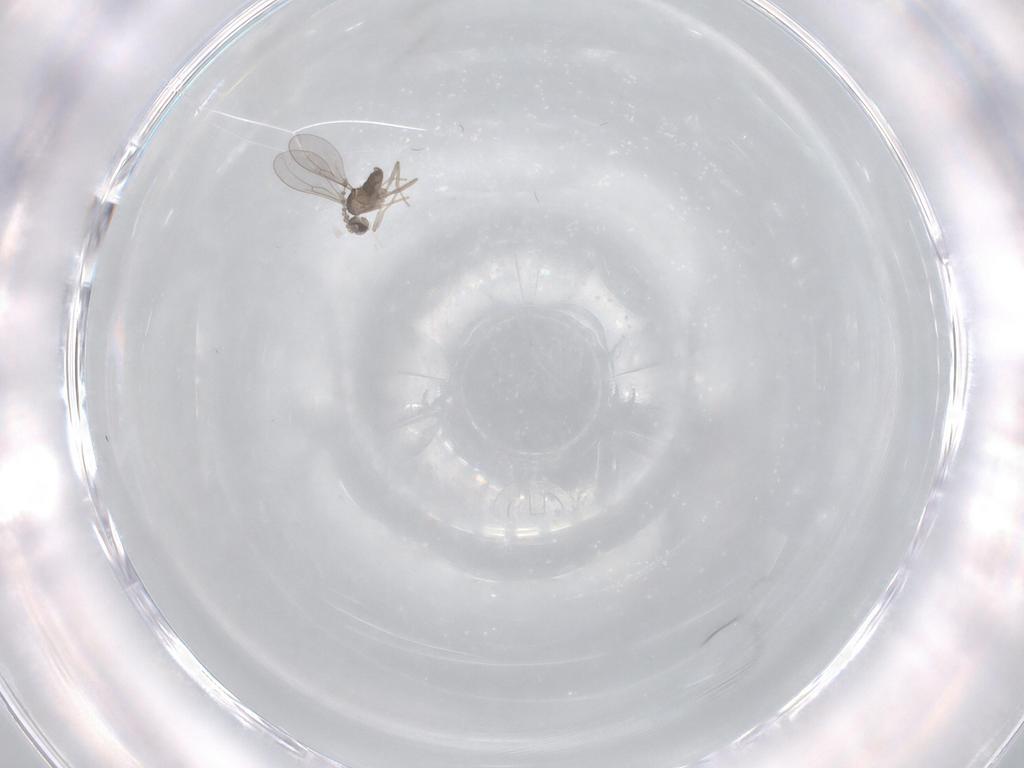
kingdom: Animalia
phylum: Arthropoda
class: Insecta
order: Diptera
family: Cecidomyiidae
